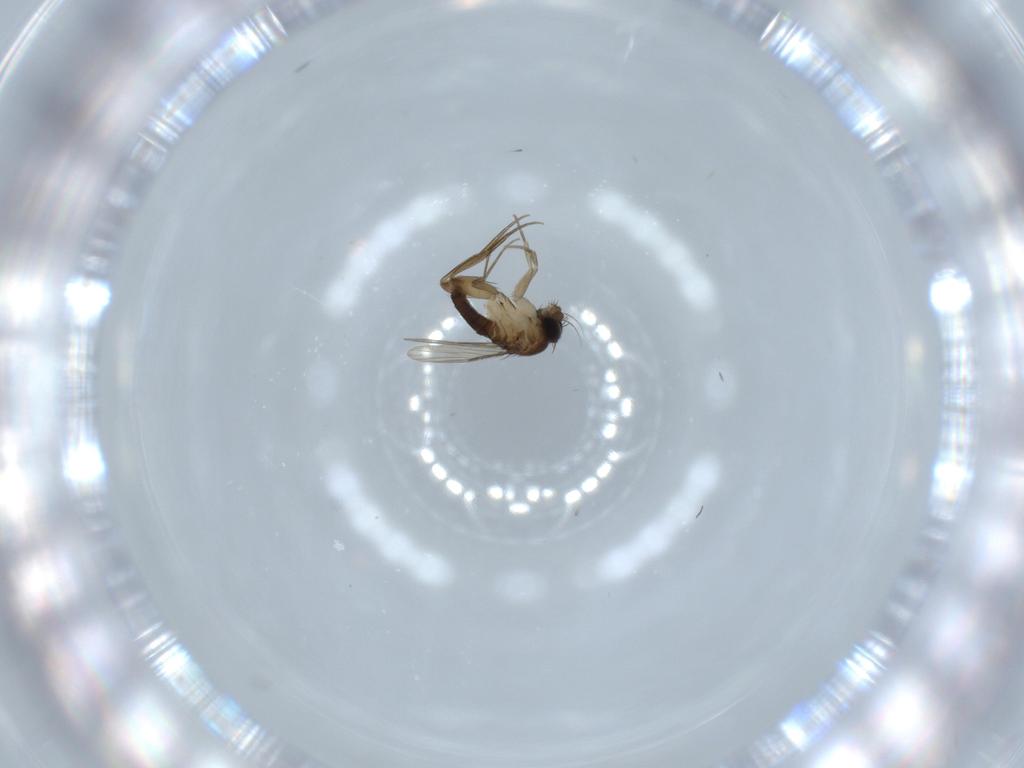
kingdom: Animalia
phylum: Arthropoda
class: Insecta
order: Diptera
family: Phoridae
